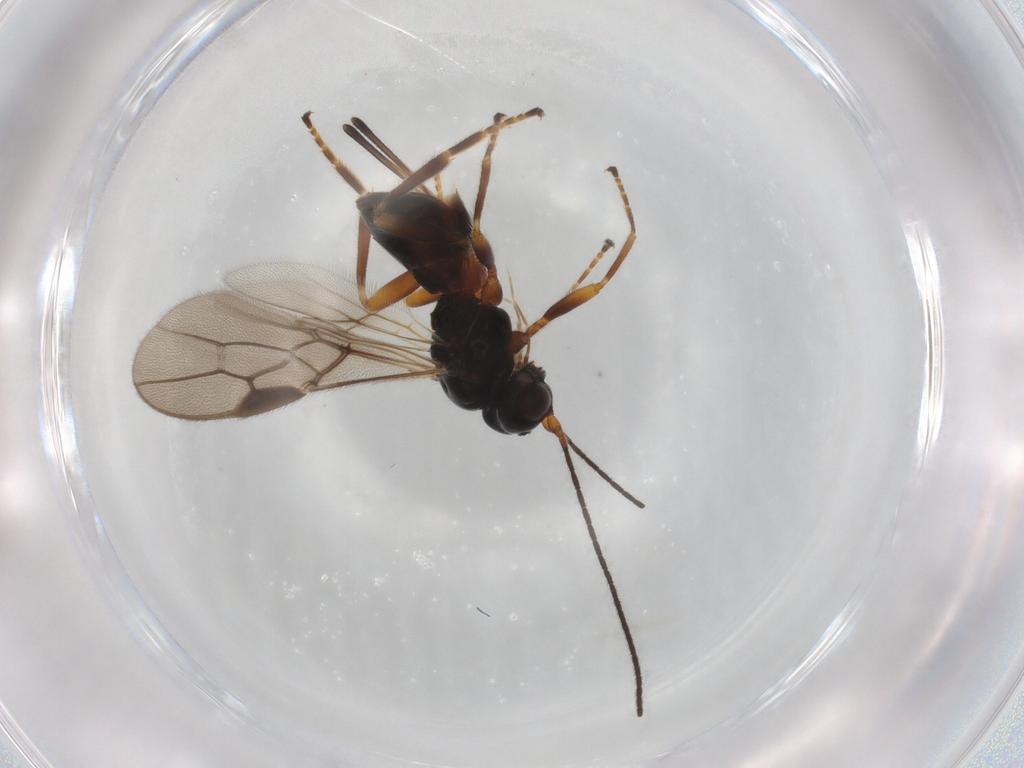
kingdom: Animalia
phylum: Arthropoda
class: Insecta
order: Hymenoptera
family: Braconidae
